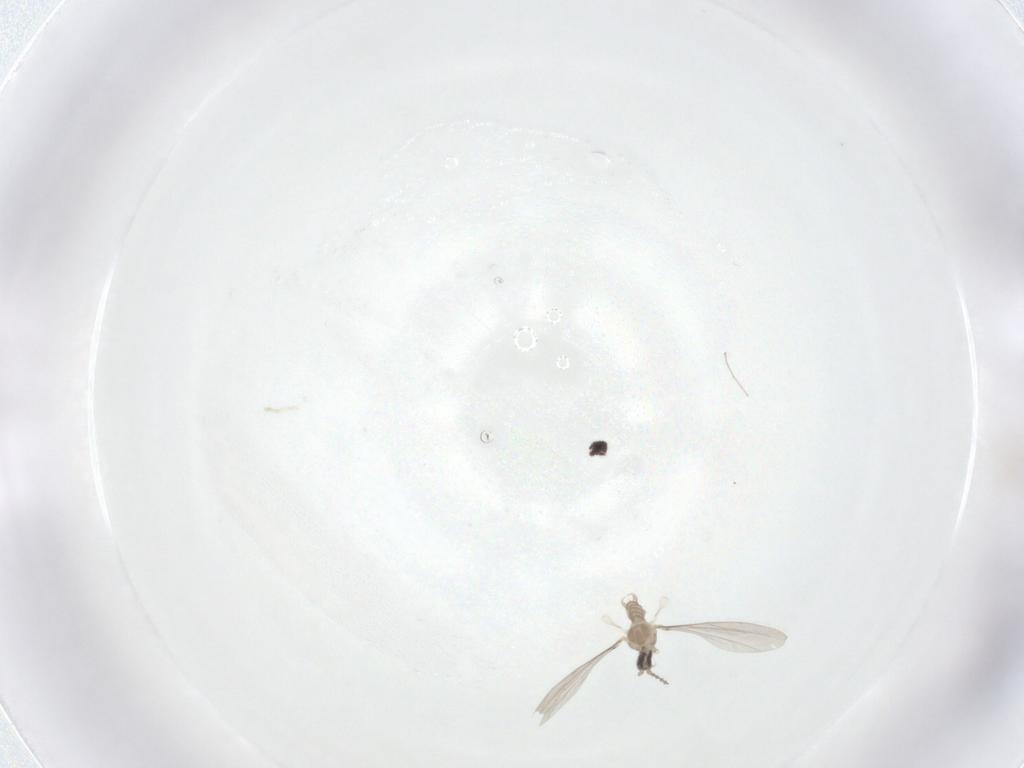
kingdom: Animalia
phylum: Arthropoda
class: Insecta
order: Diptera
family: Cecidomyiidae
